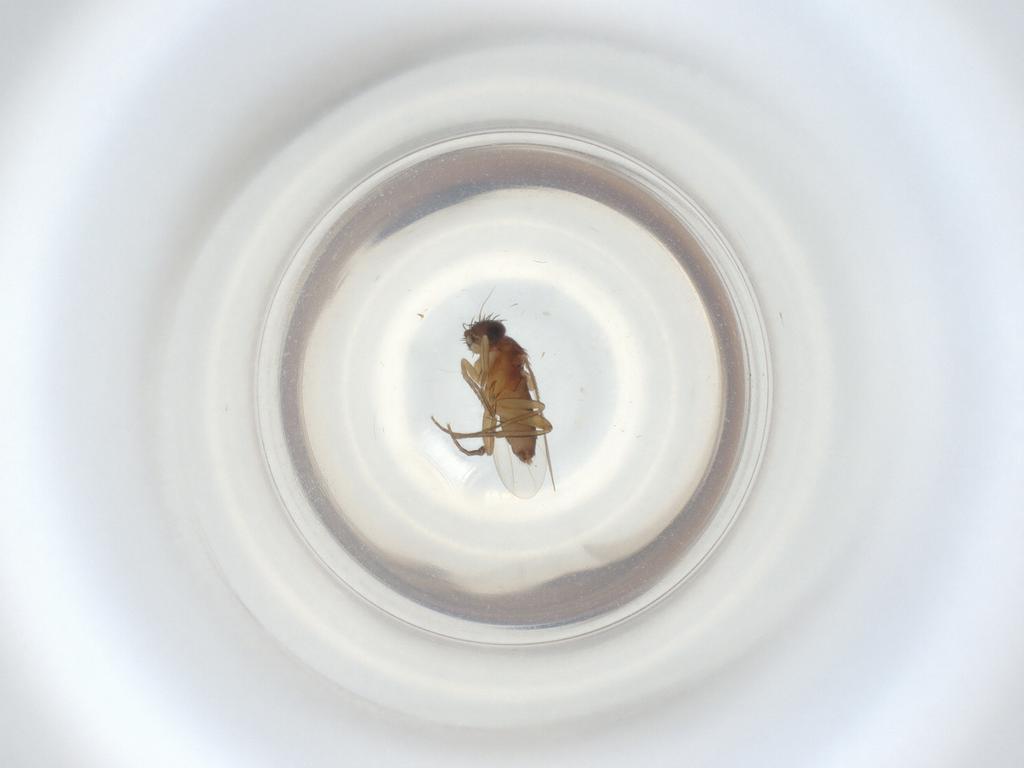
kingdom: Animalia
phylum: Arthropoda
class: Insecta
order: Diptera
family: Phoridae
